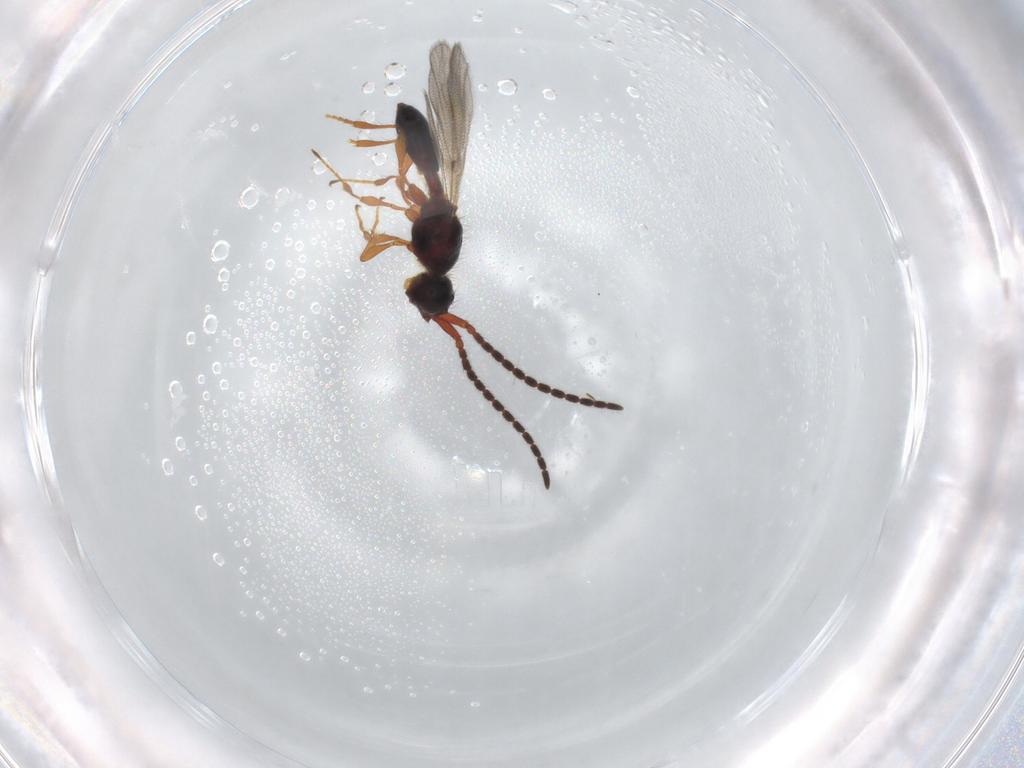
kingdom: Animalia
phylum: Arthropoda
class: Insecta
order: Hymenoptera
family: Diapriidae
